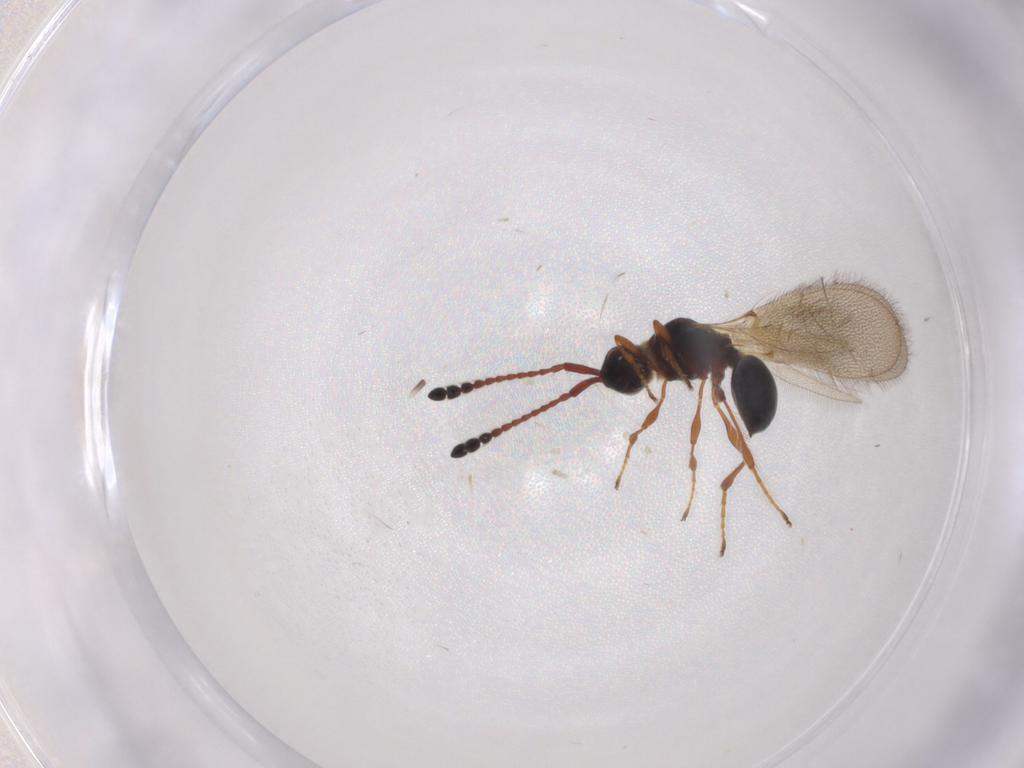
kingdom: Animalia
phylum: Arthropoda
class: Insecta
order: Hymenoptera
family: Diapriidae
